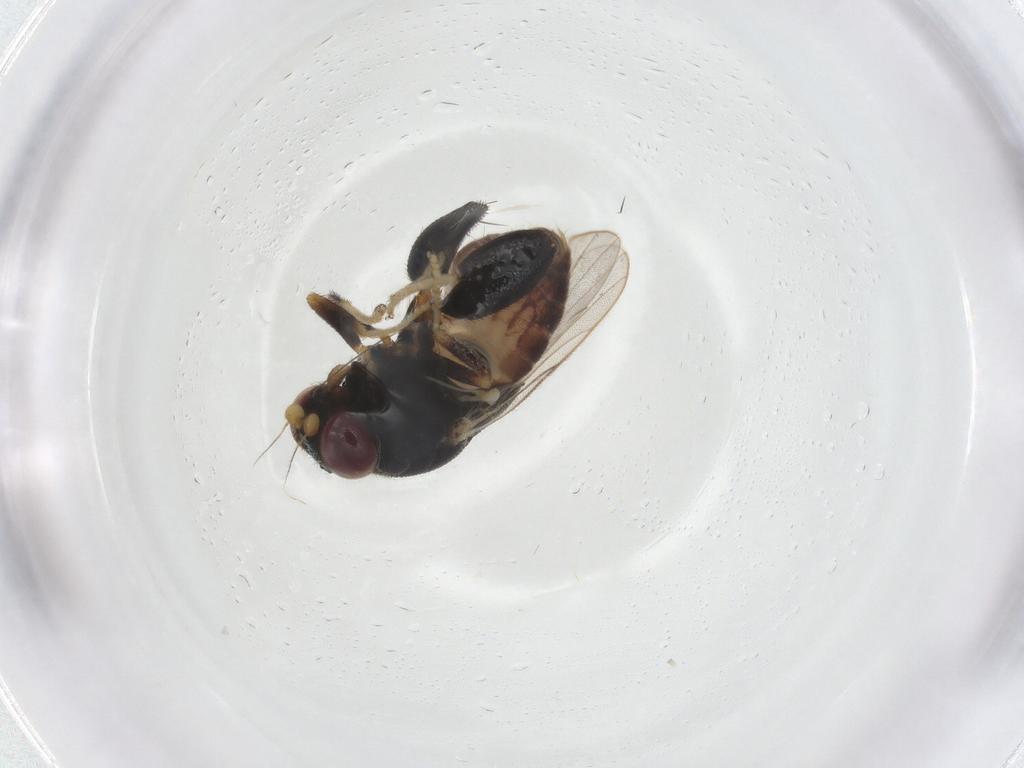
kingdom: Animalia
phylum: Arthropoda
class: Insecta
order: Diptera
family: Chloropidae
